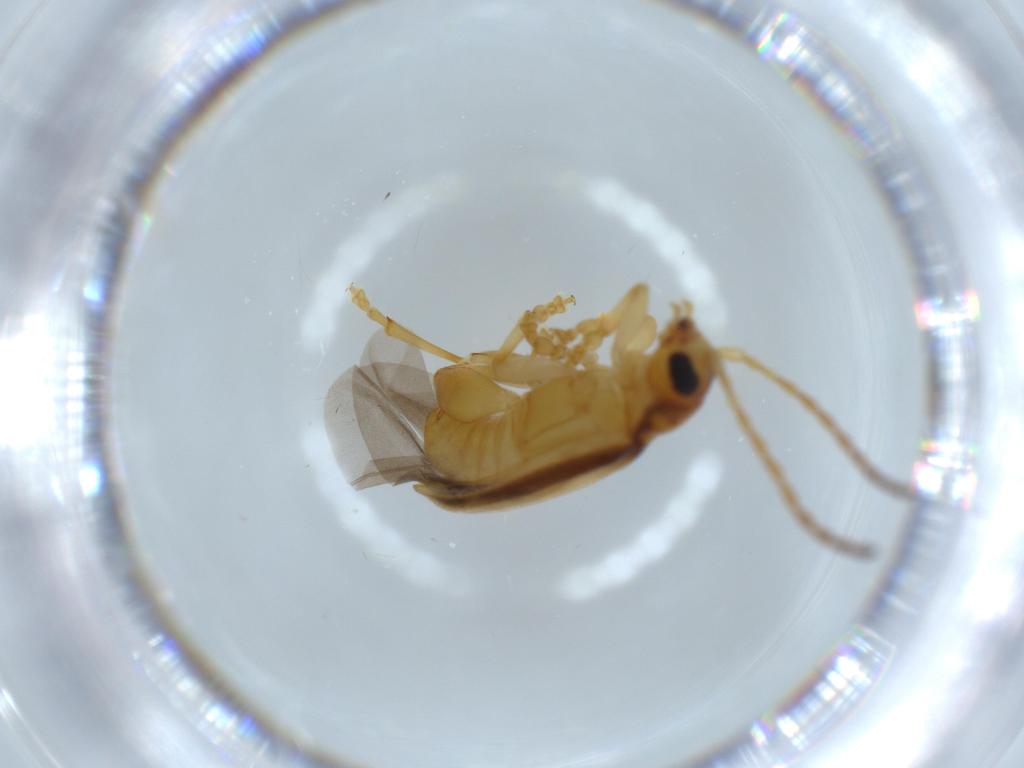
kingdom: Animalia
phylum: Arthropoda
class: Insecta
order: Coleoptera
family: Chrysomelidae
